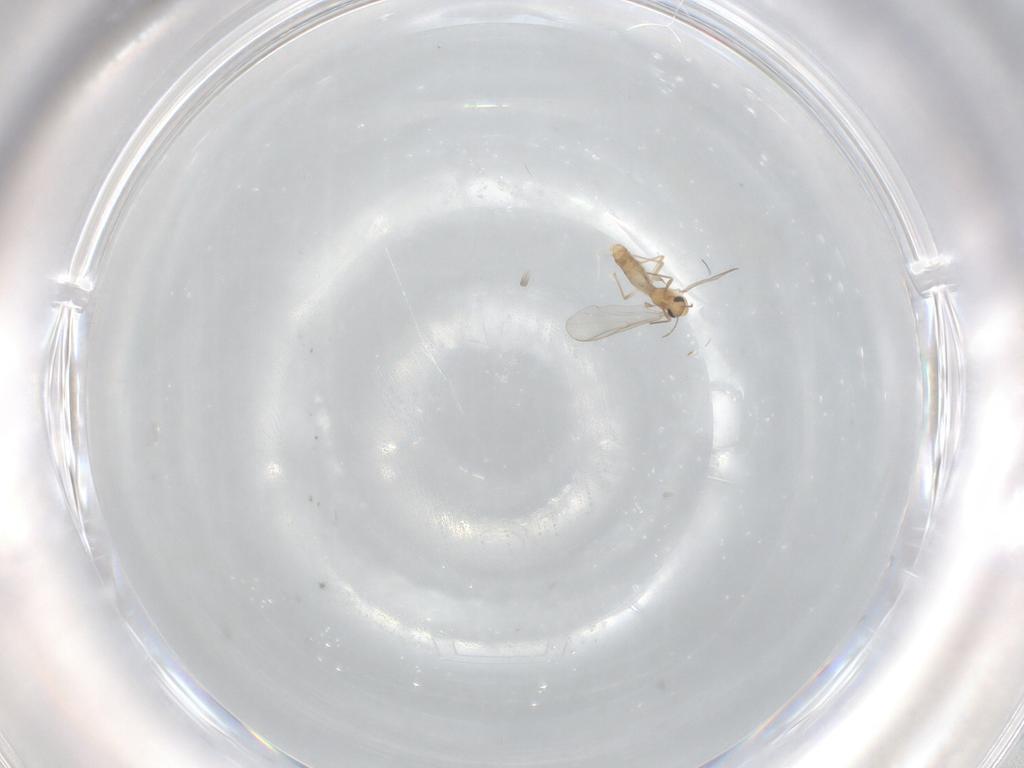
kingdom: Animalia
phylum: Arthropoda
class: Insecta
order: Diptera
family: Chironomidae
